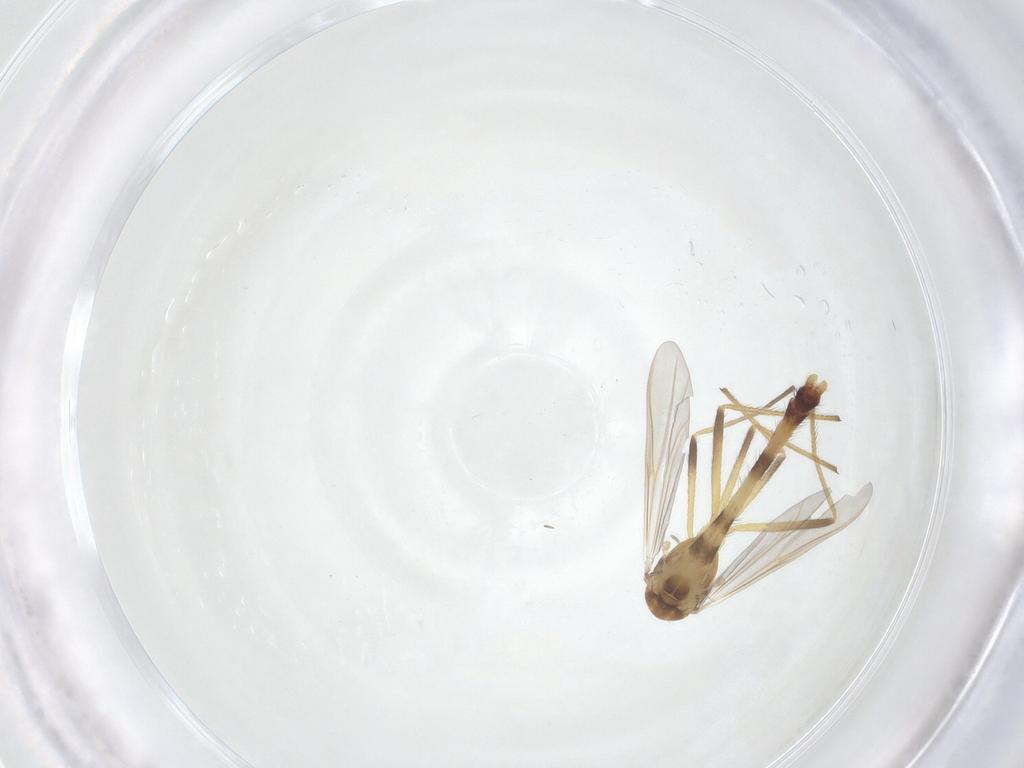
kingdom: Animalia
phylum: Arthropoda
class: Insecta
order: Diptera
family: Chironomidae
